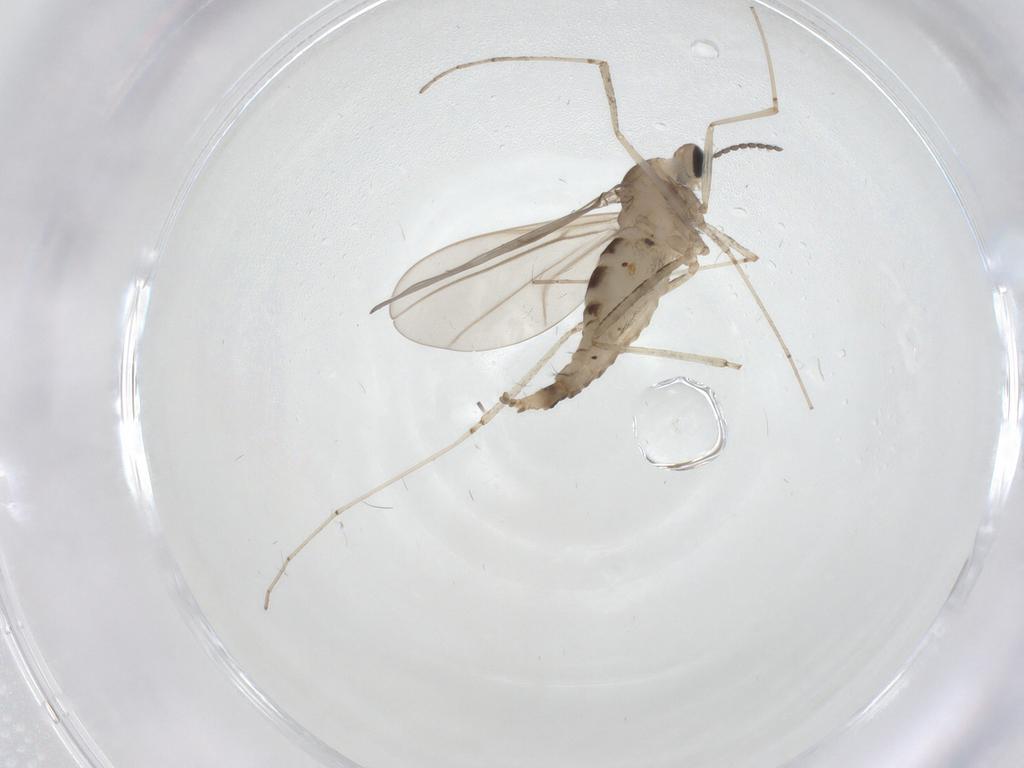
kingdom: Animalia
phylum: Arthropoda
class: Insecta
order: Diptera
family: Cecidomyiidae
